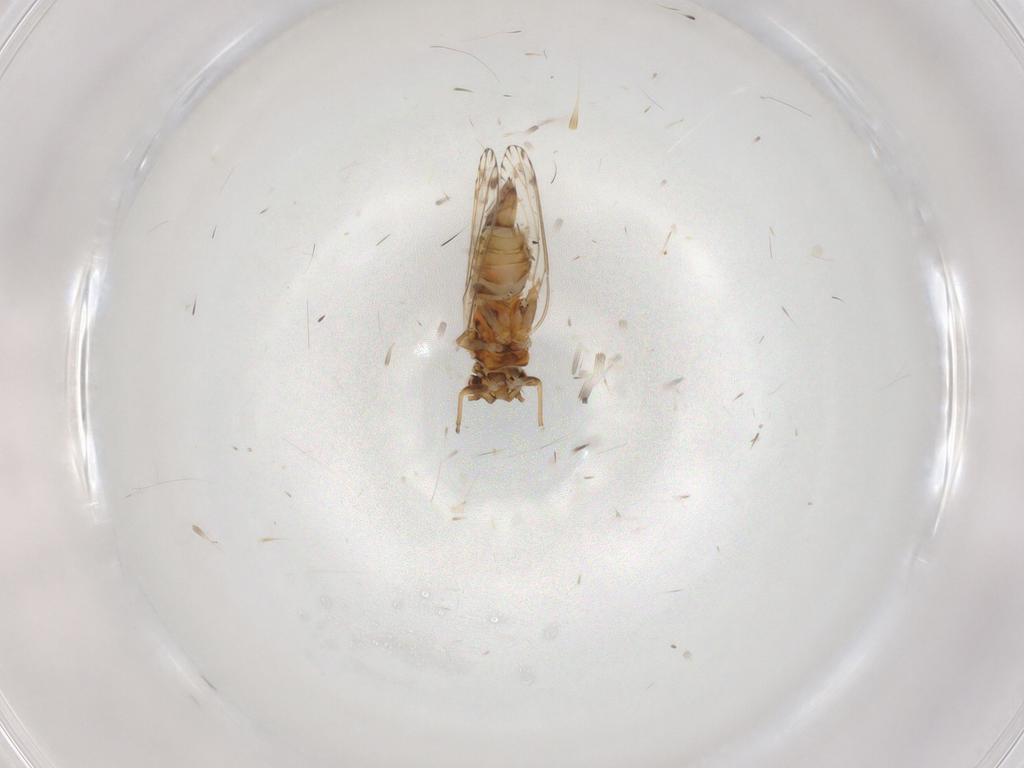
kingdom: Animalia
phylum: Arthropoda
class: Insecta
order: Hemiptera
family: Psyllidae
